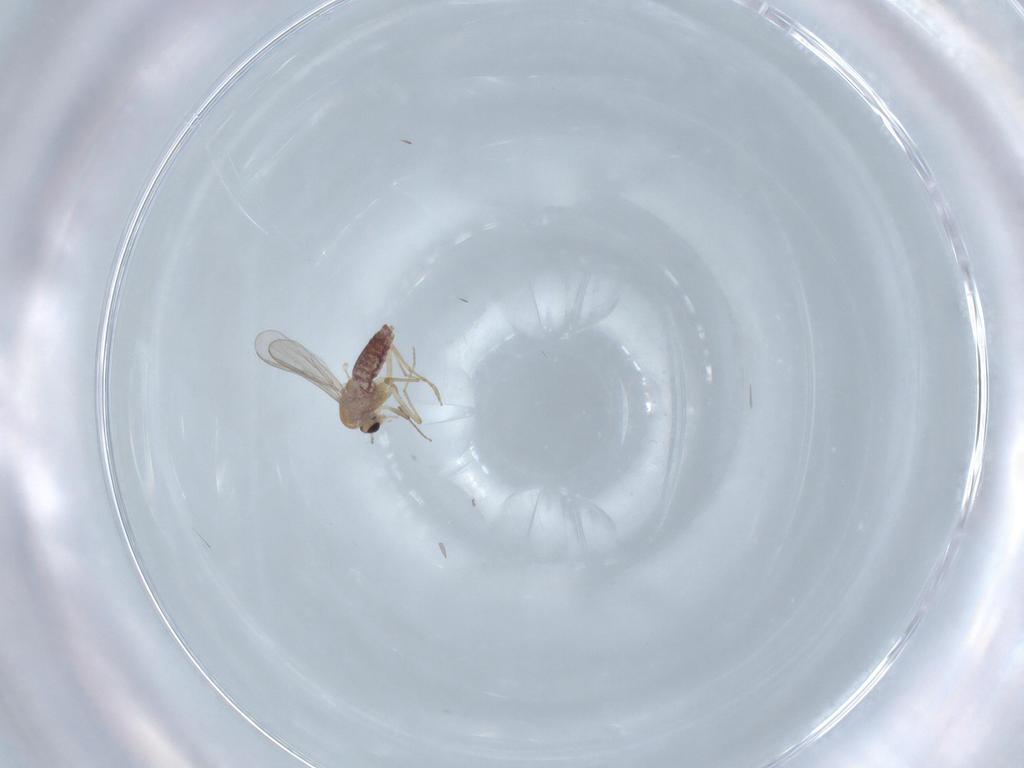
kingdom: Animalia
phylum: Arthropoda
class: Insecta
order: Diptera
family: Chironomidae
